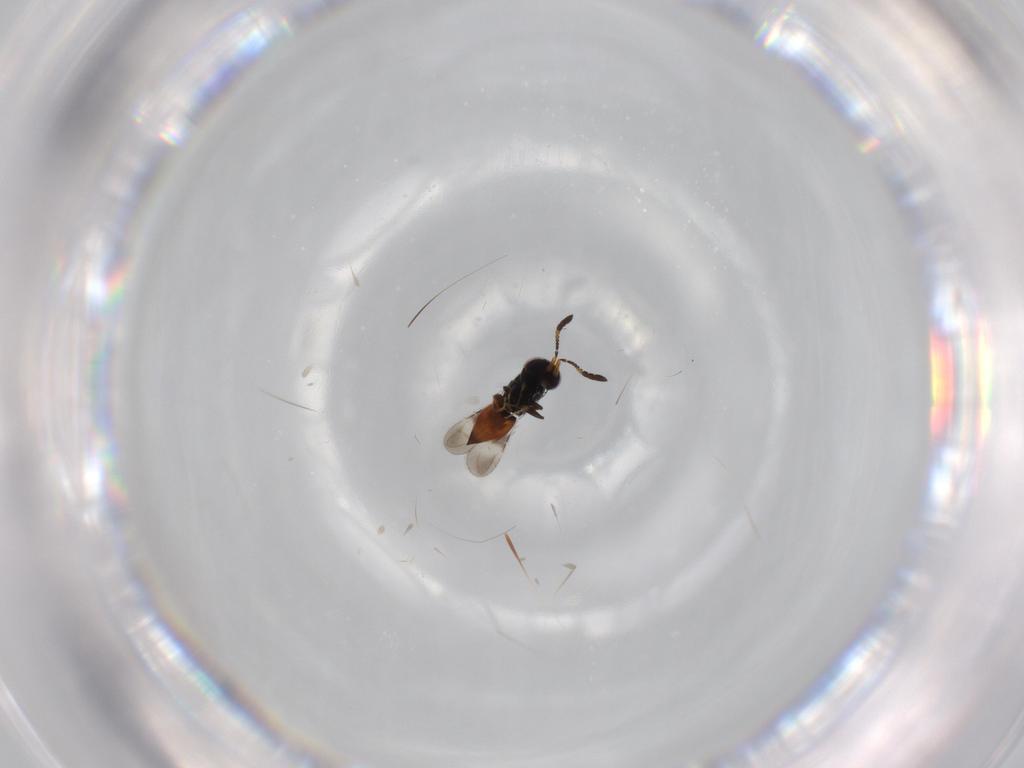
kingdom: Animalia
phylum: Arthropoda
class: Insecta
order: Hymenoptera
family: Ceraphronidae
